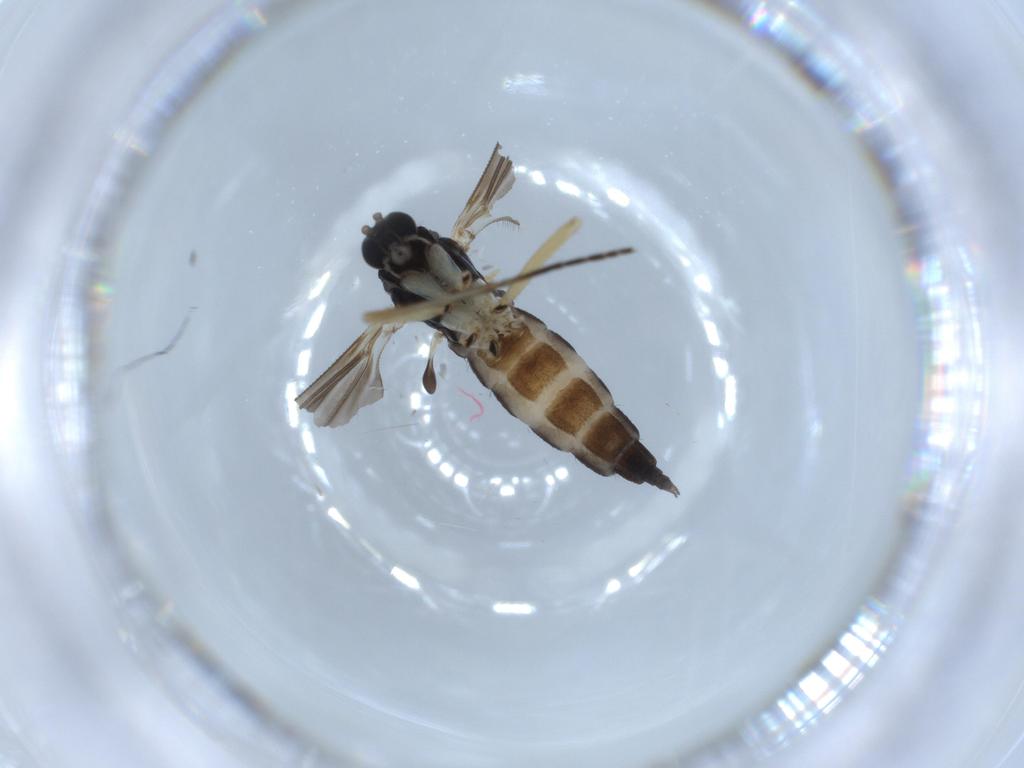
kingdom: Animalia
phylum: Arthropoda
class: Insecta
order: Diptera
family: Sciaridae
